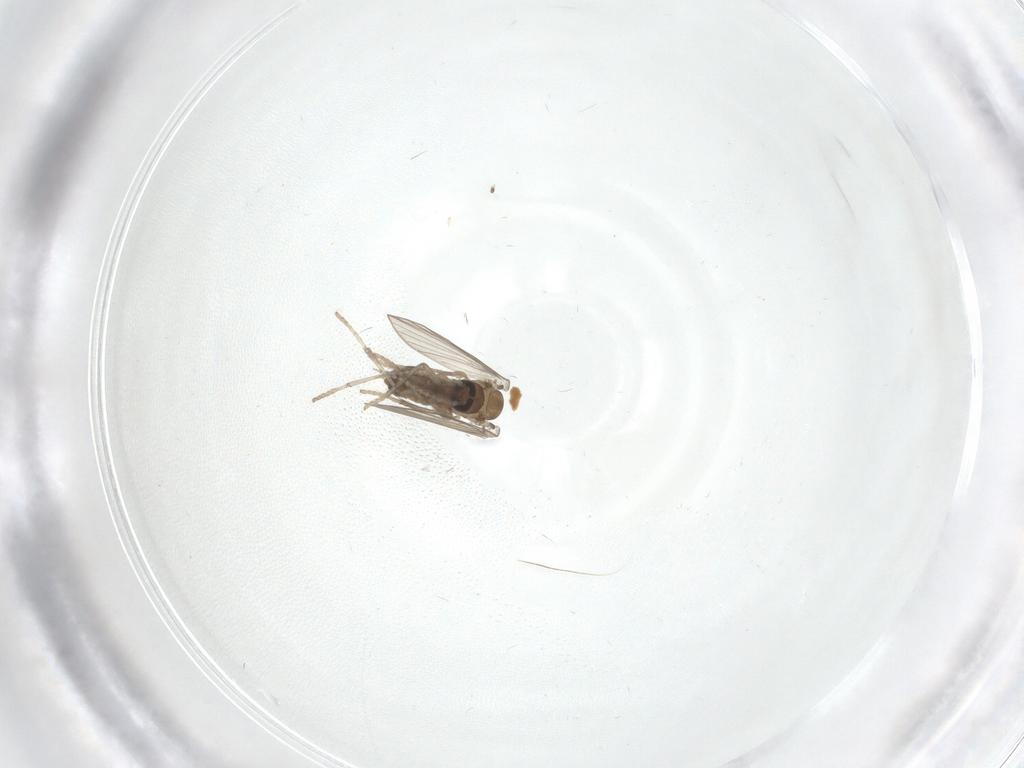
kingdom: Animalia
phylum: Arthropoda
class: Insecta
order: Diptera
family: Psychodidae
